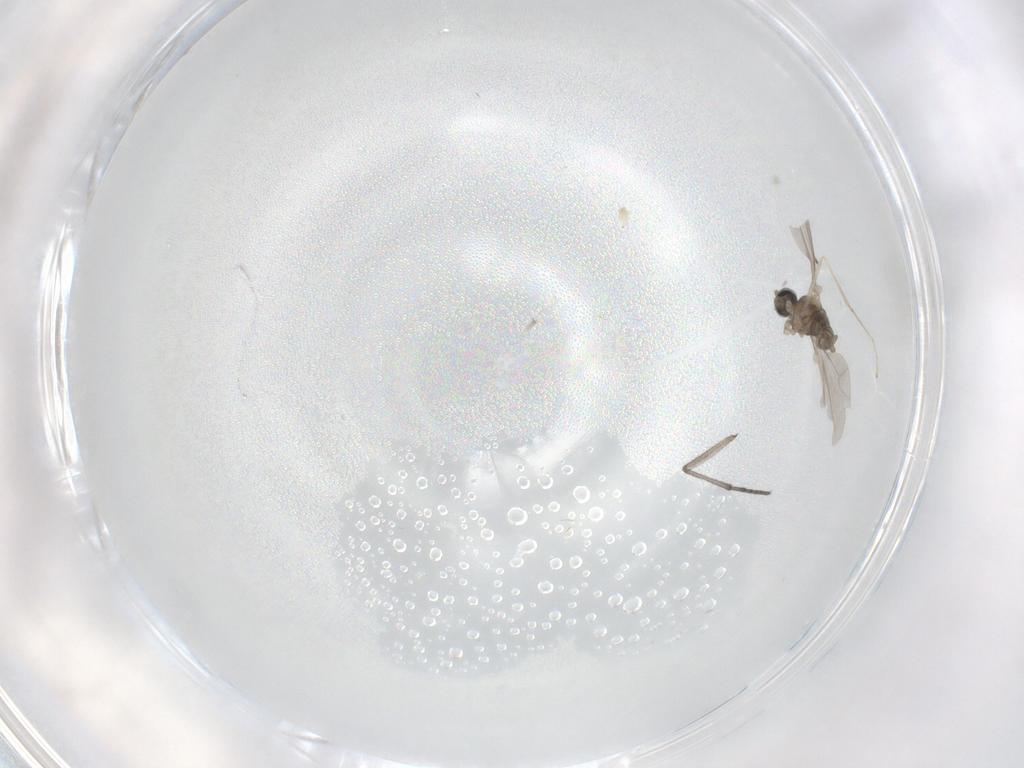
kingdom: Animalia
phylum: Arthropoda
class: Insecta
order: Diptera
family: Cecidomyiidae
